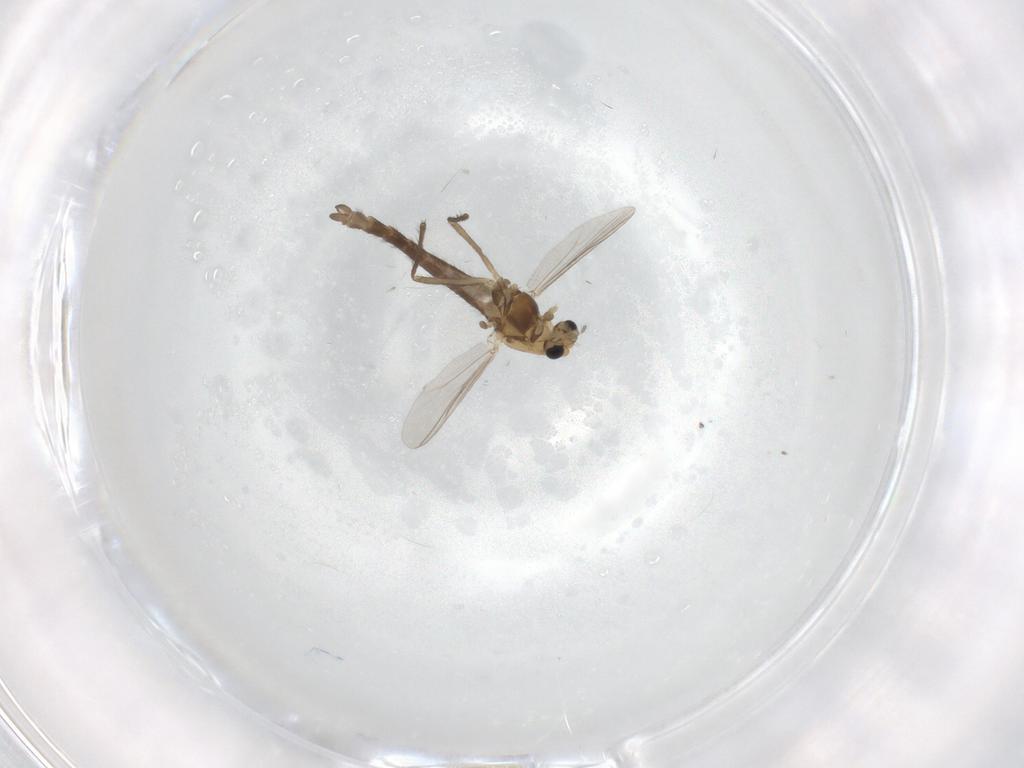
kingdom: Animalia
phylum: Arthropoda
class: Insecta
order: Diptera
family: Chironomidae
